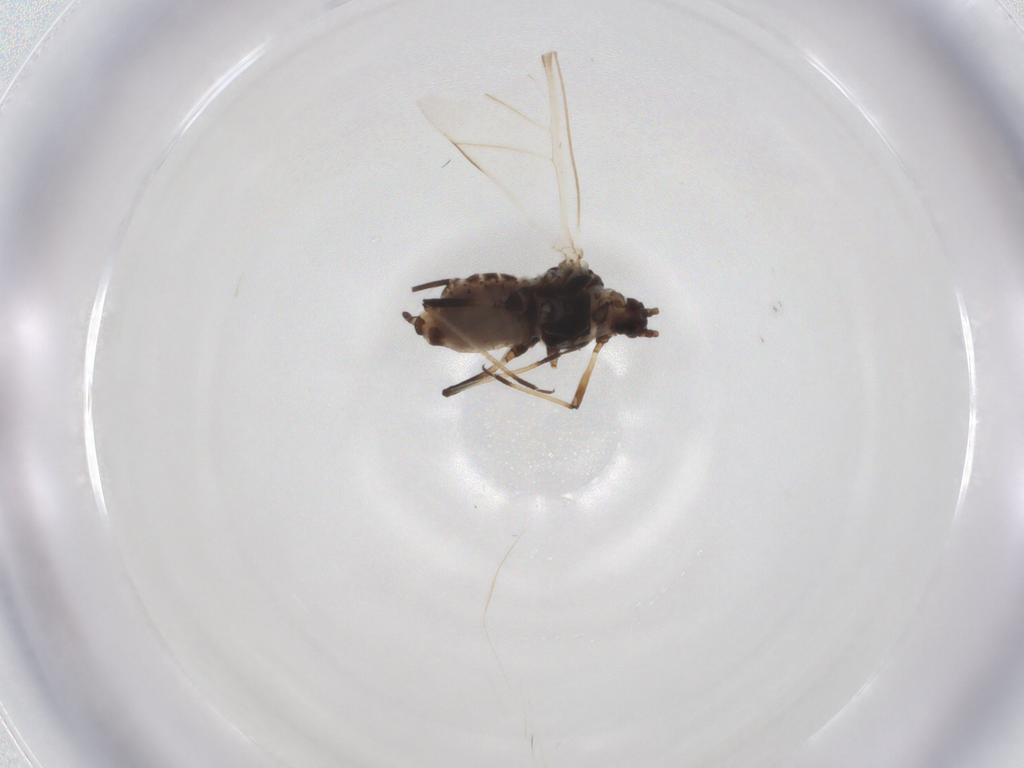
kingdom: Animalia
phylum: Arthropoda
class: Insecta
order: Hemiptera
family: Aphididae
